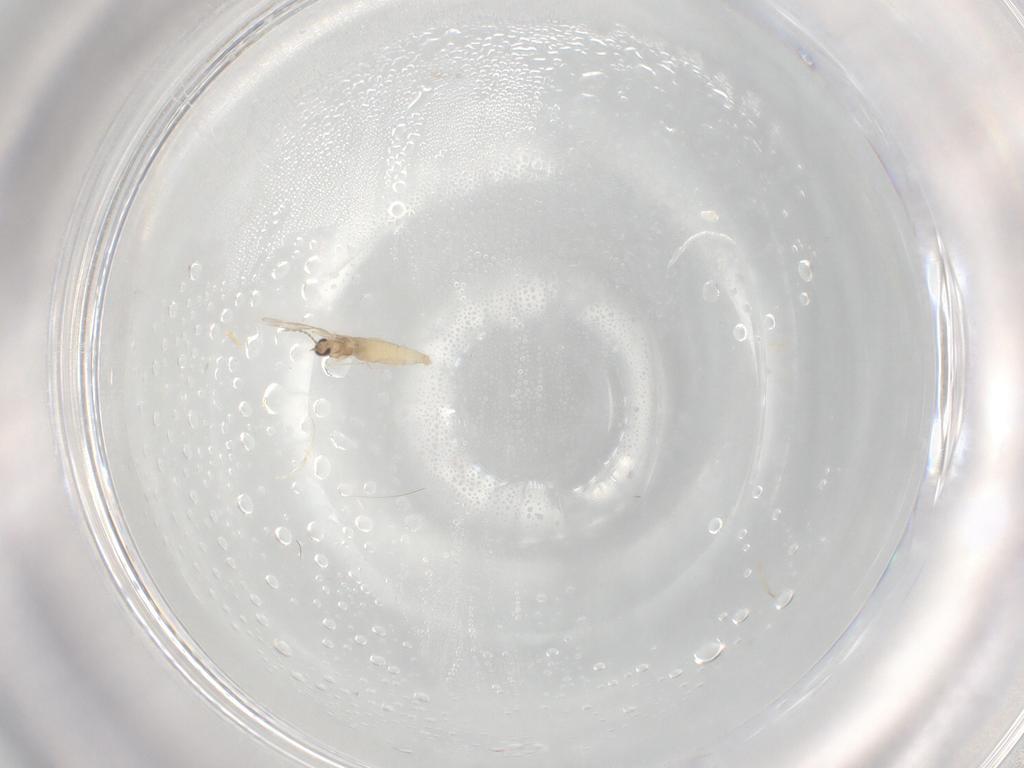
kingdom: Animalia
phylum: Arthropoda
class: Insecta
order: Diptera
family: Cecidomyiidae
